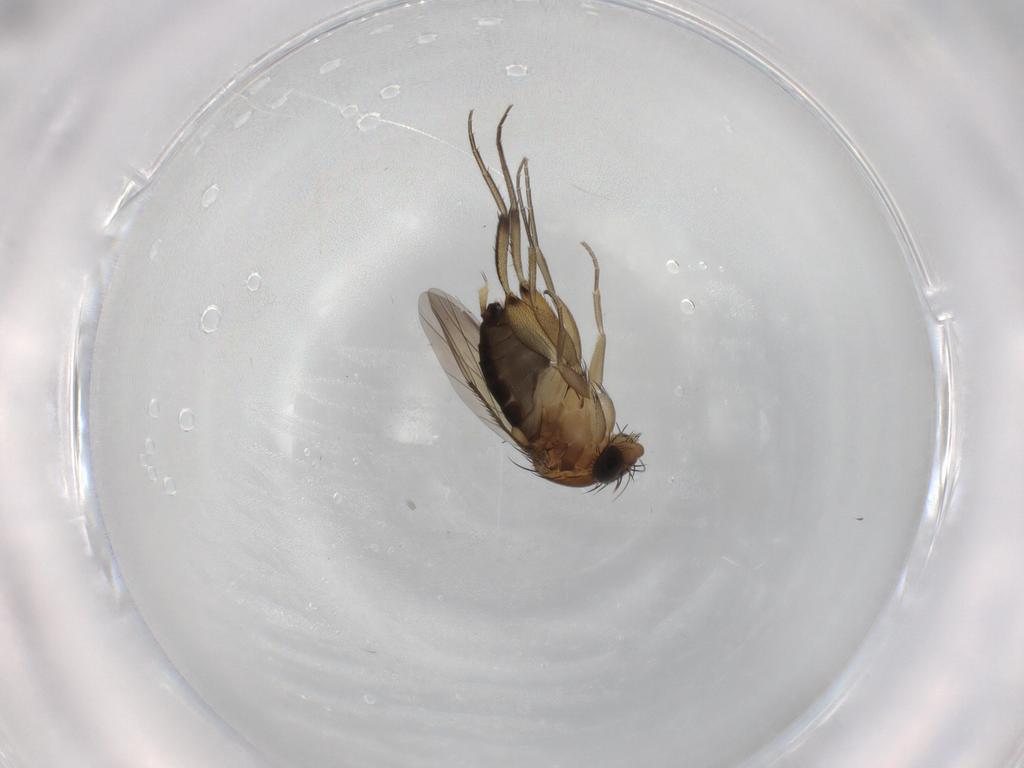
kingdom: Animalia
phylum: Arthropoda
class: Insecta
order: Diptera
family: Phoridae
